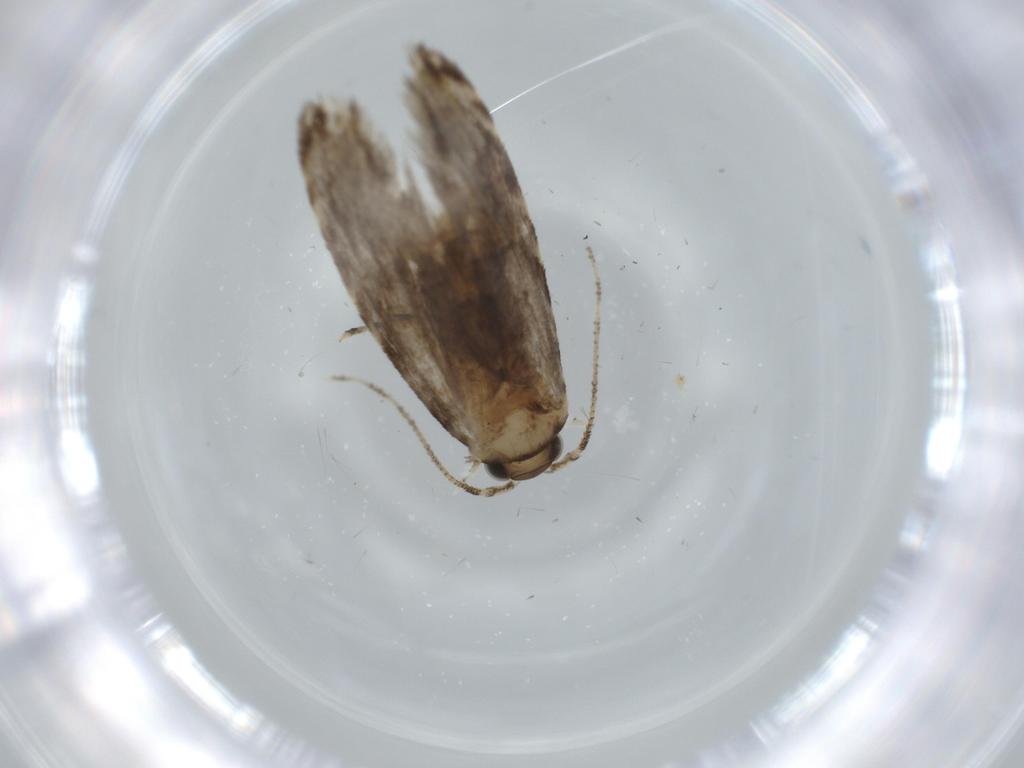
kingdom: Animalia
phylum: Arthropoda
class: Insecta
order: Lepidoptera
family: Tineidae
